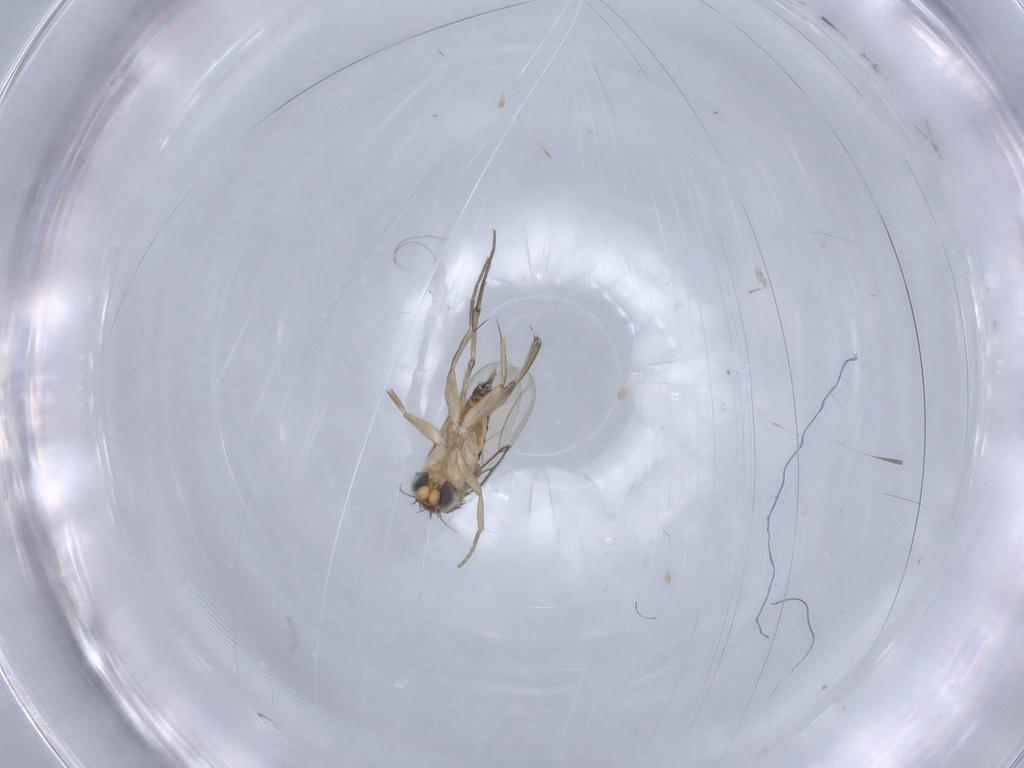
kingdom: Animalia
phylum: Arthropoda
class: Insecta
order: Diptera
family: Phoridae
